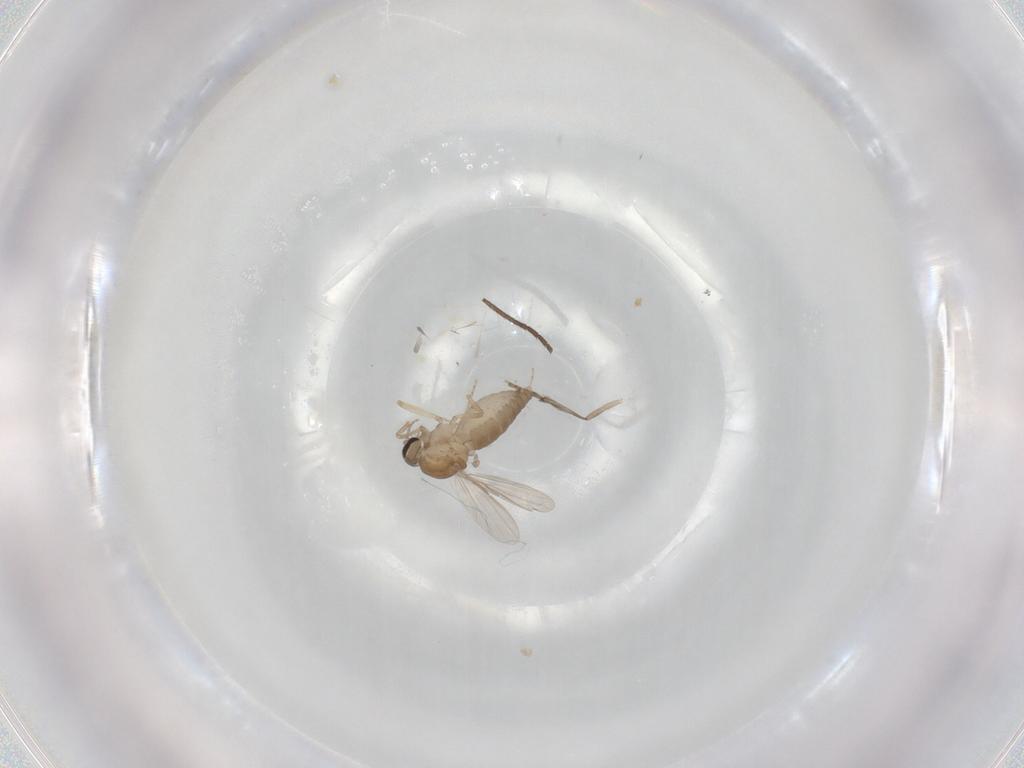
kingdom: Animalia
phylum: Arthropoda
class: Insecta
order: Diptera
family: Ceratopogonidae
